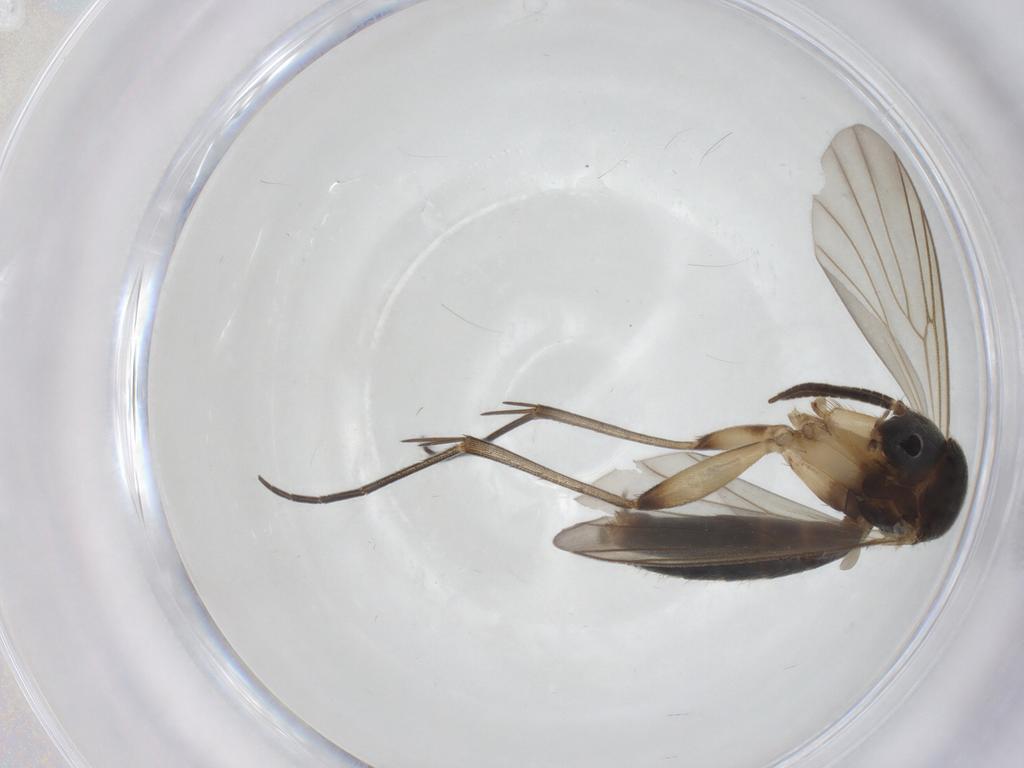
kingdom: Animalia
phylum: Arthropoda
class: Insecta
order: Diptera
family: Mycetophilidae
